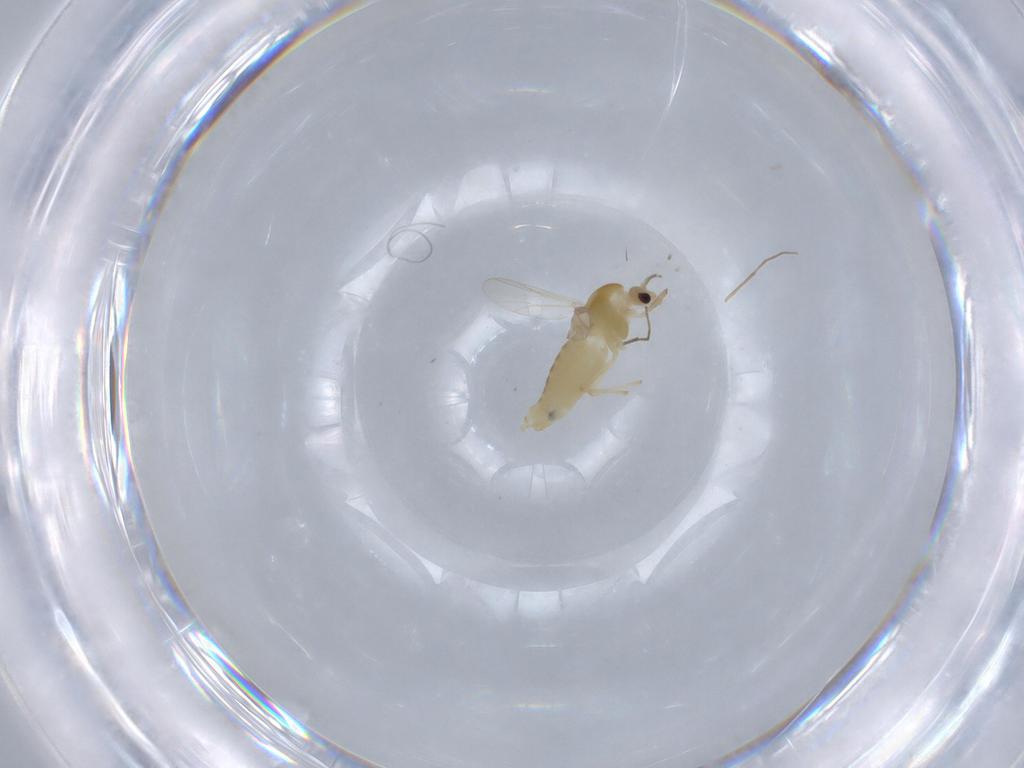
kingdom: Animalia
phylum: Arthropoda
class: Insecta
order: Diptera
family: Chironomidae
